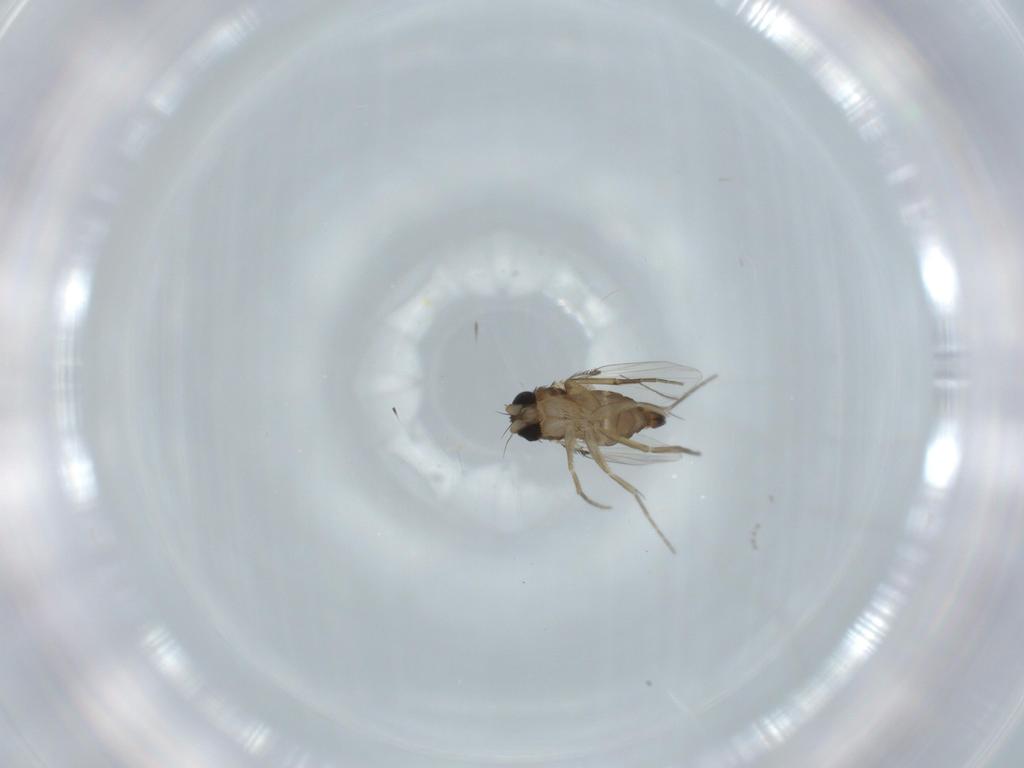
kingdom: Animalia
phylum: Arthropoda
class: Insecta
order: Diptera
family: Phoridae
